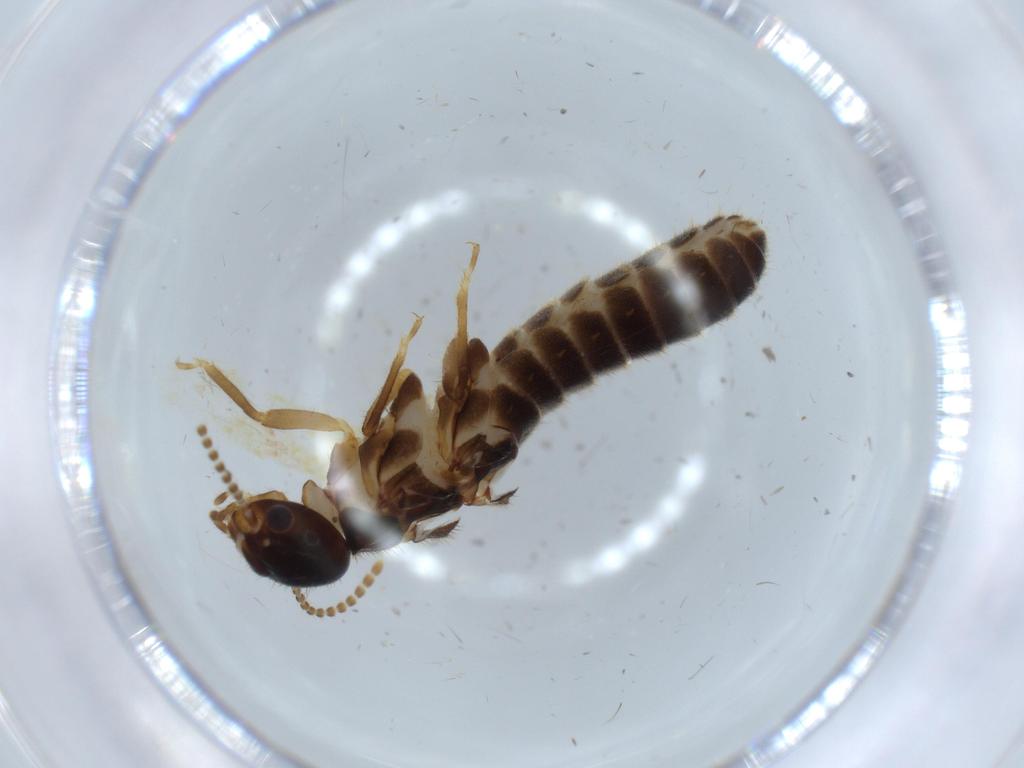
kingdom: Animalia
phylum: Arthropoda
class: Insecta
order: Blattodea
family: Termitidae
